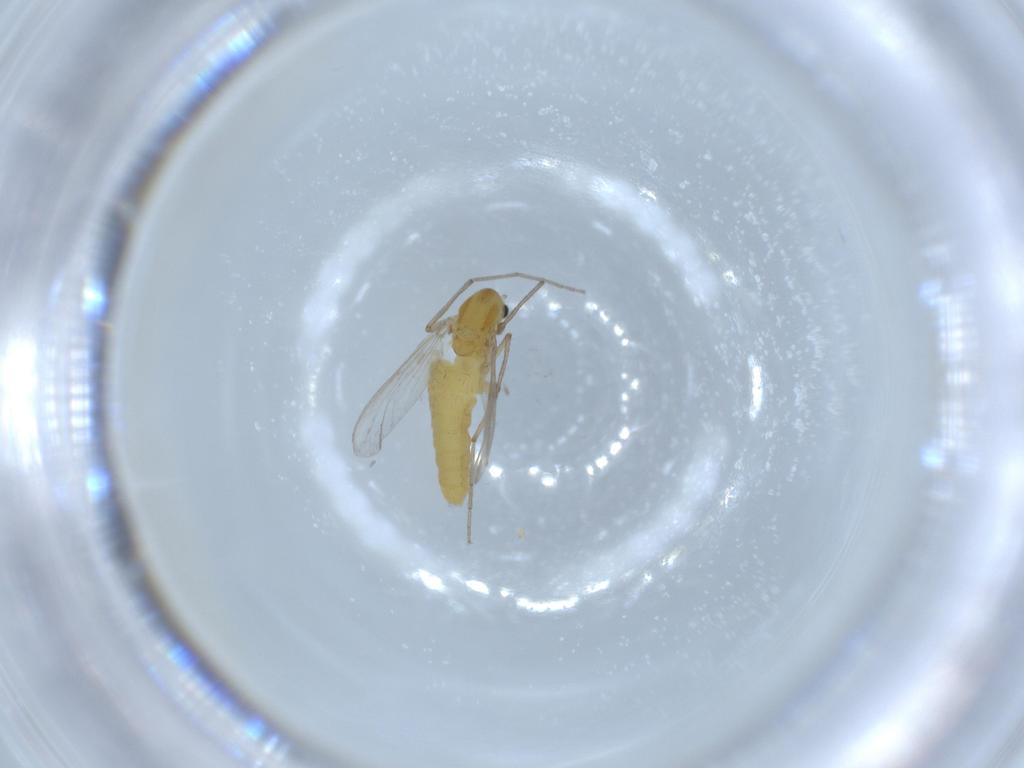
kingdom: Animalia
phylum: Arthropoda
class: Insecta
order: Diptera
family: Chironomidae
